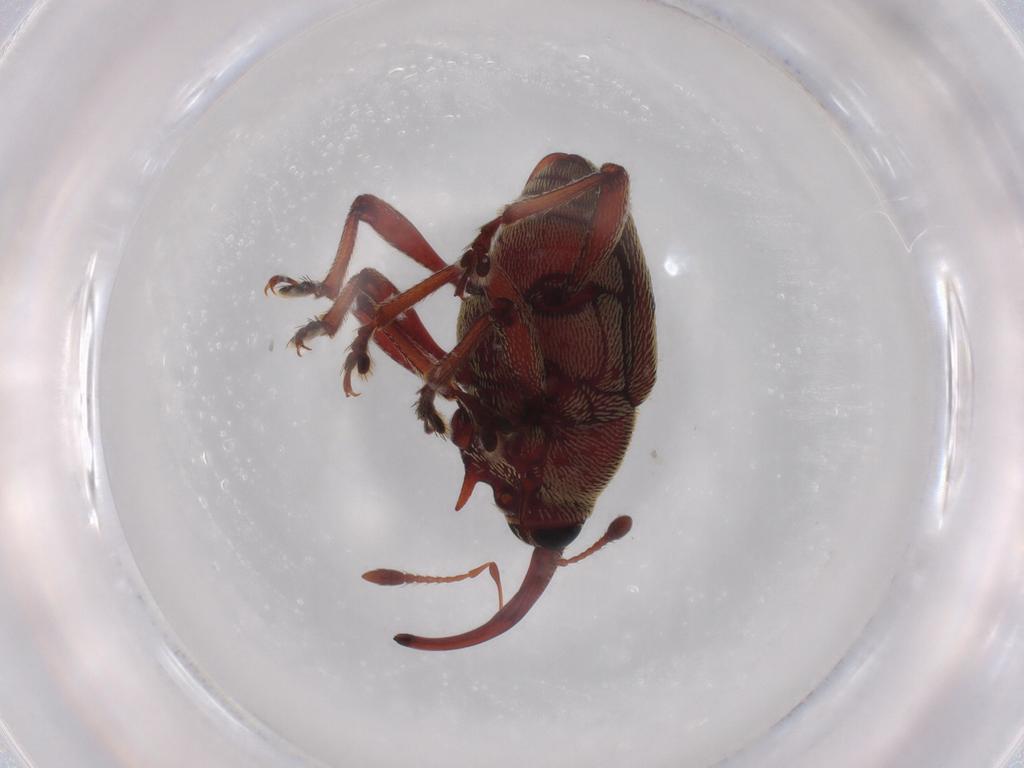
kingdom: Animalia
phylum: Arthropoda
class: Insecta
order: Coleoptera
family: Curculionidae
